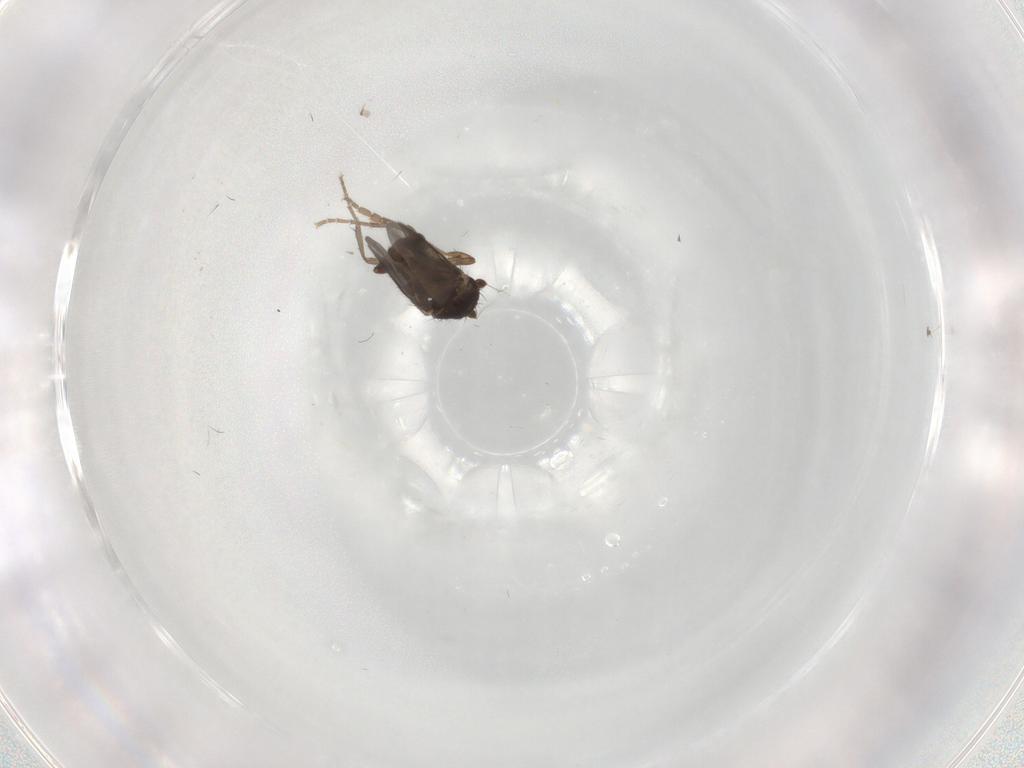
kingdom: Animalia
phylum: Arthropoda
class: Insecta
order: Diptera
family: Sphaeroceridae
